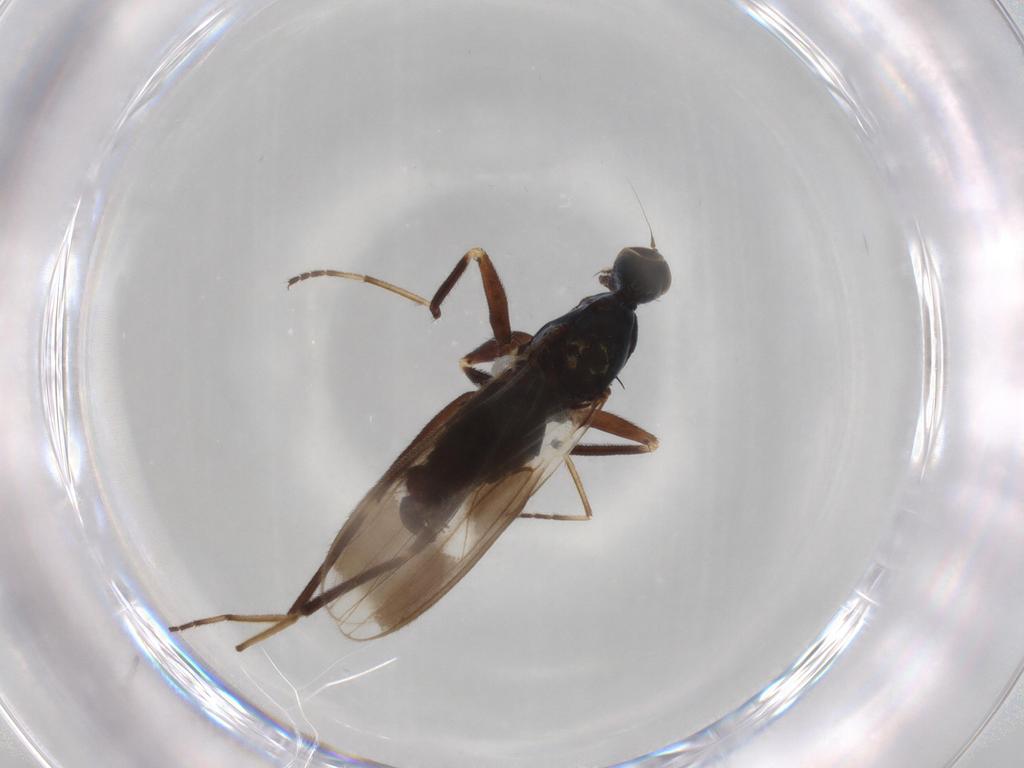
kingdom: Animalia
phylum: Arthropoda
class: Insecta
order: Diptera
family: Hybotidae
